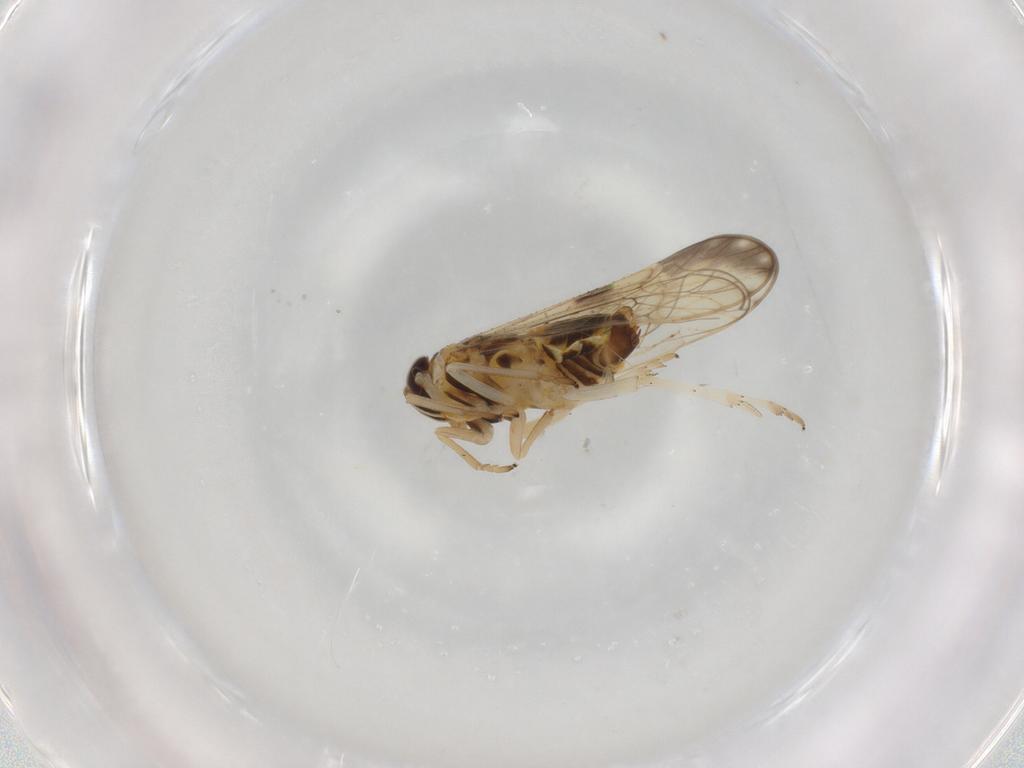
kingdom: Animalia
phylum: Arthropoda
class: Insecta
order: Hemiptera
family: Delphacidae
